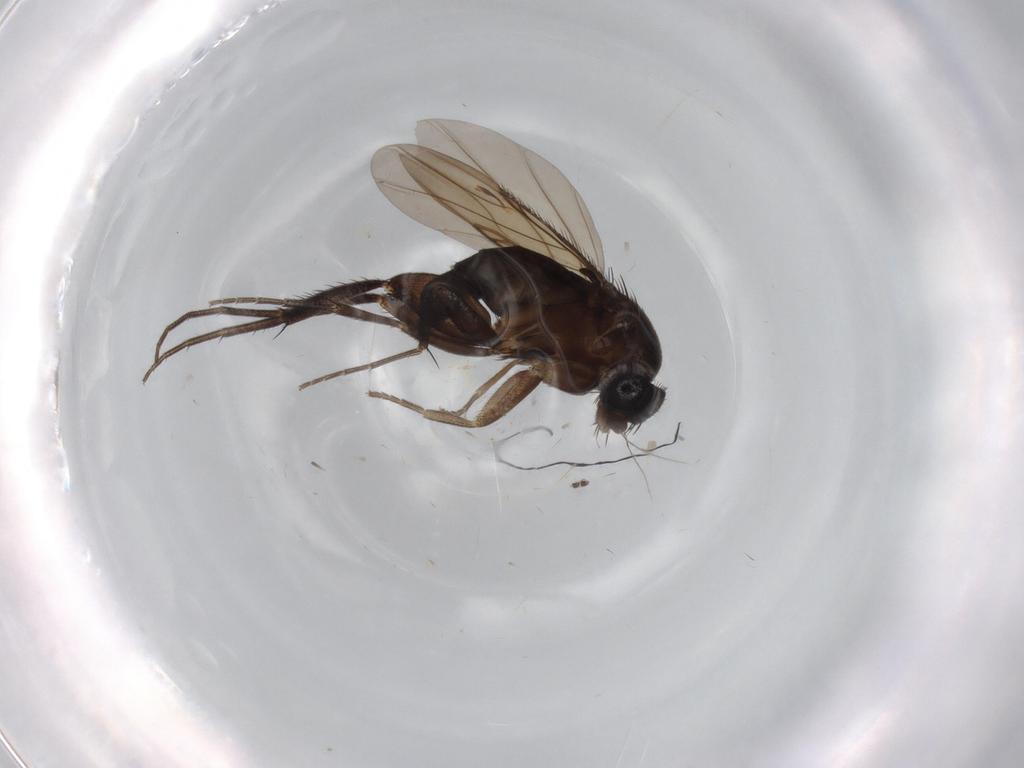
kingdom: Animalia
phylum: Arthropoda
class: Insecta
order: Diptera
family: Phoridae
